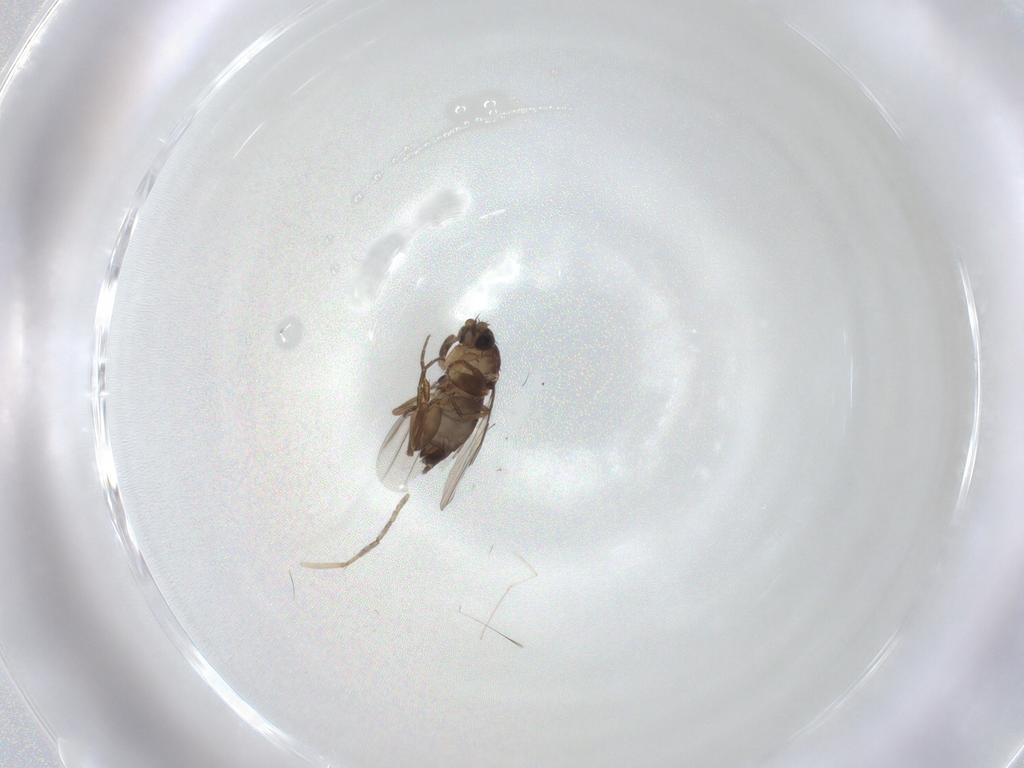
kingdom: Animalia
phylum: Arthropoda
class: Insecta
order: Diptera
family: Phoridae
